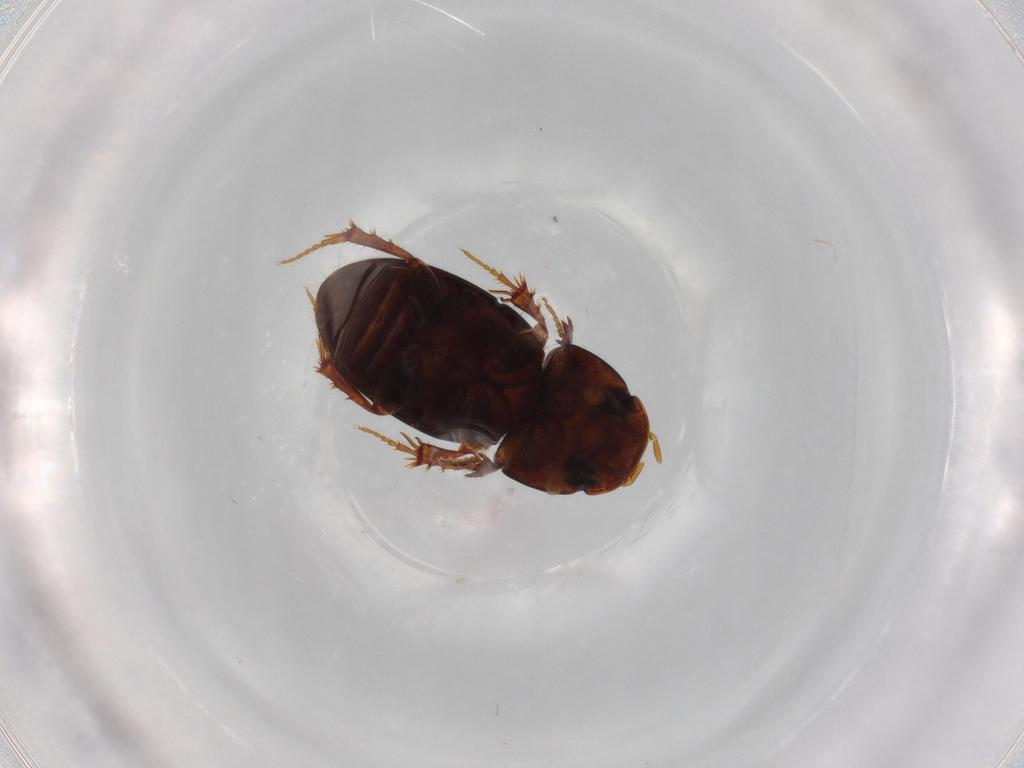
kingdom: Animalia
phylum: Arthropoda
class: Insecta
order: Coleoptera
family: Scarabaeidae
